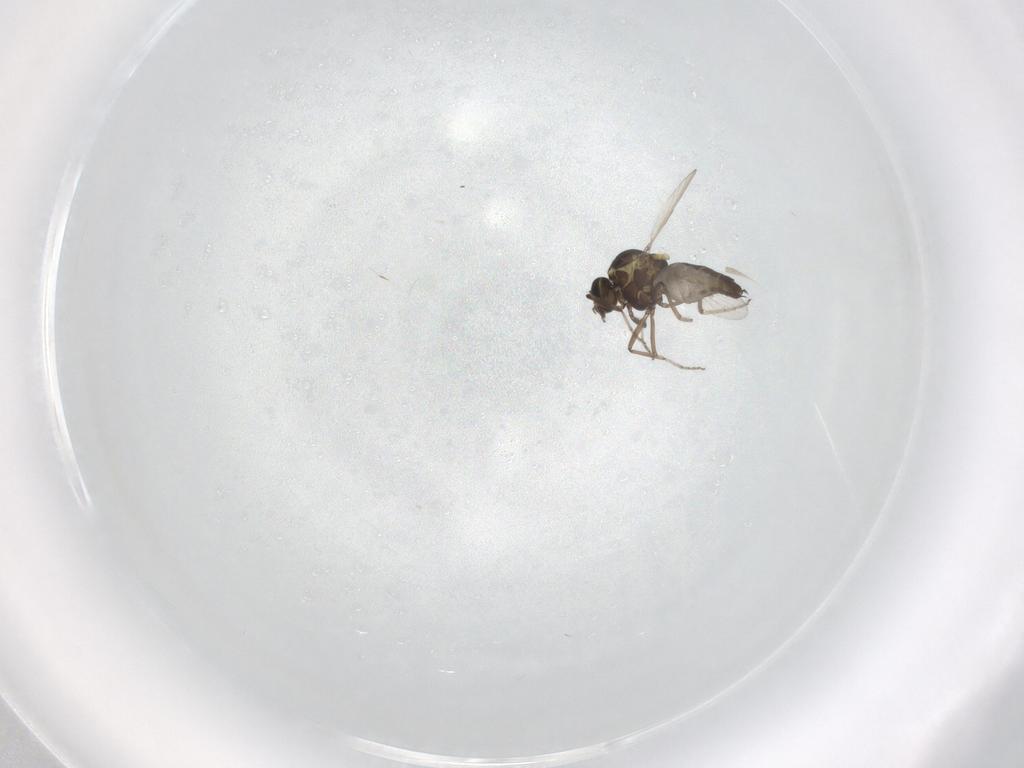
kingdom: Animalia
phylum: Arthropoda
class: Insecta
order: Diptera
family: Ceratopogonidae
